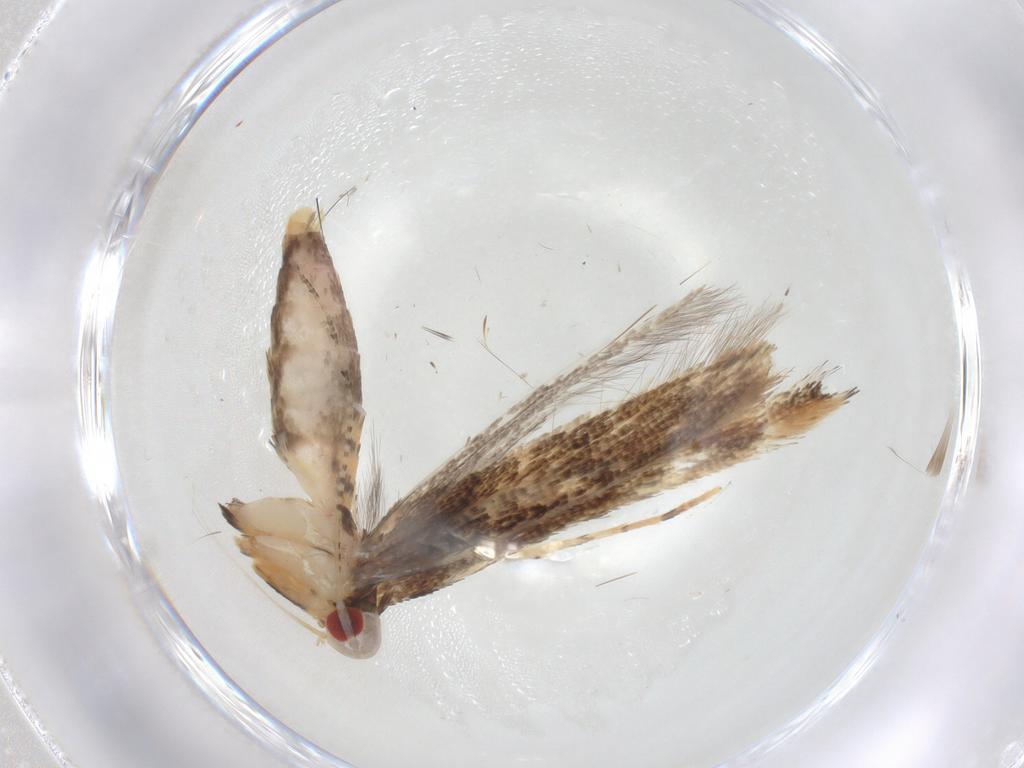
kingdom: Animalia
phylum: Arthropoda
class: Insecta
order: Lepidoptera
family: Cosmopterigidae
